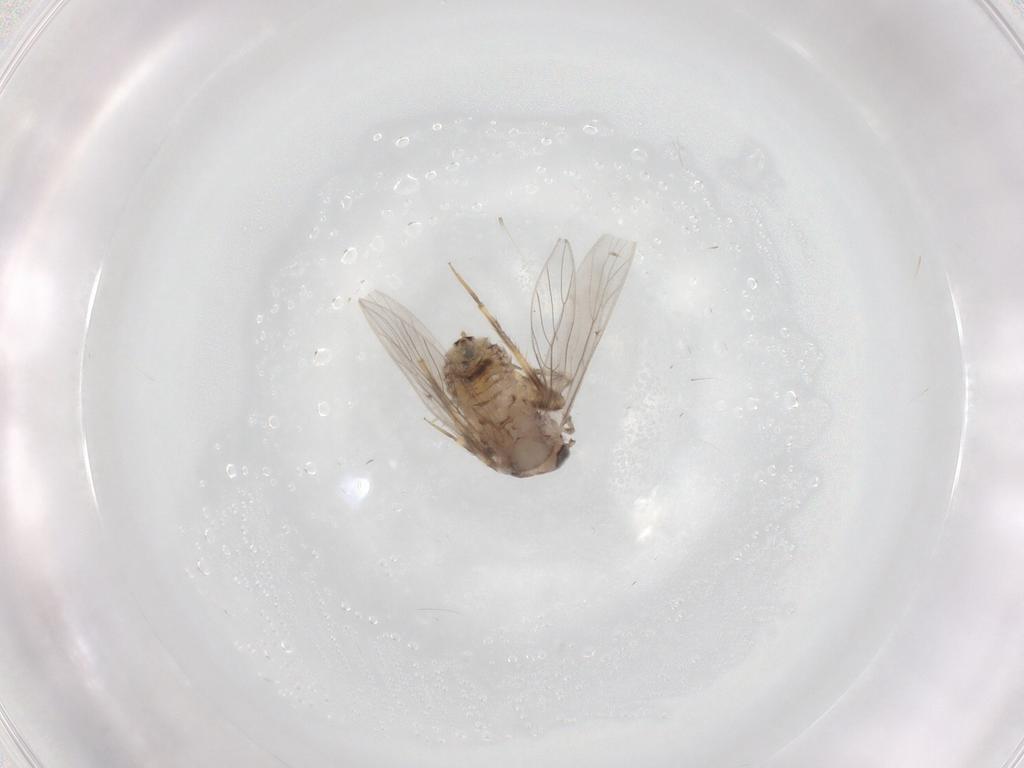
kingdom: Animalia
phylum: Arthropoda
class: Insecta
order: Psocodea
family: Lepidopsocidae
